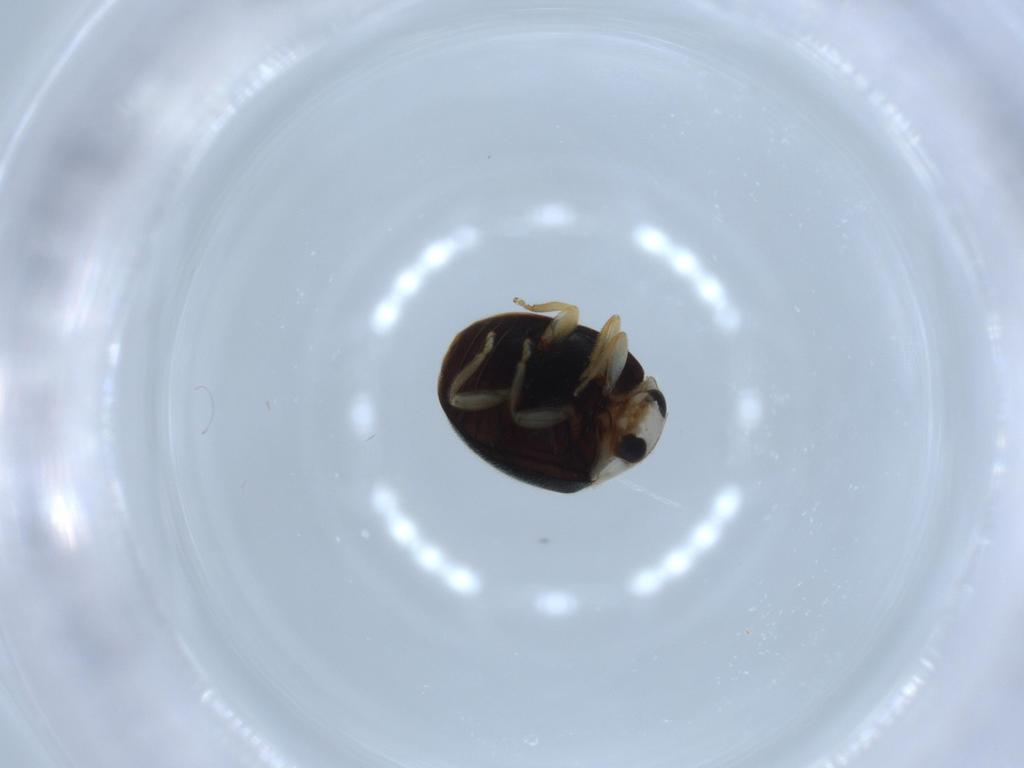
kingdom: Animalia
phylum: Arthropoda
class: Insecta
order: Coleoptera
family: Coccinellidae
